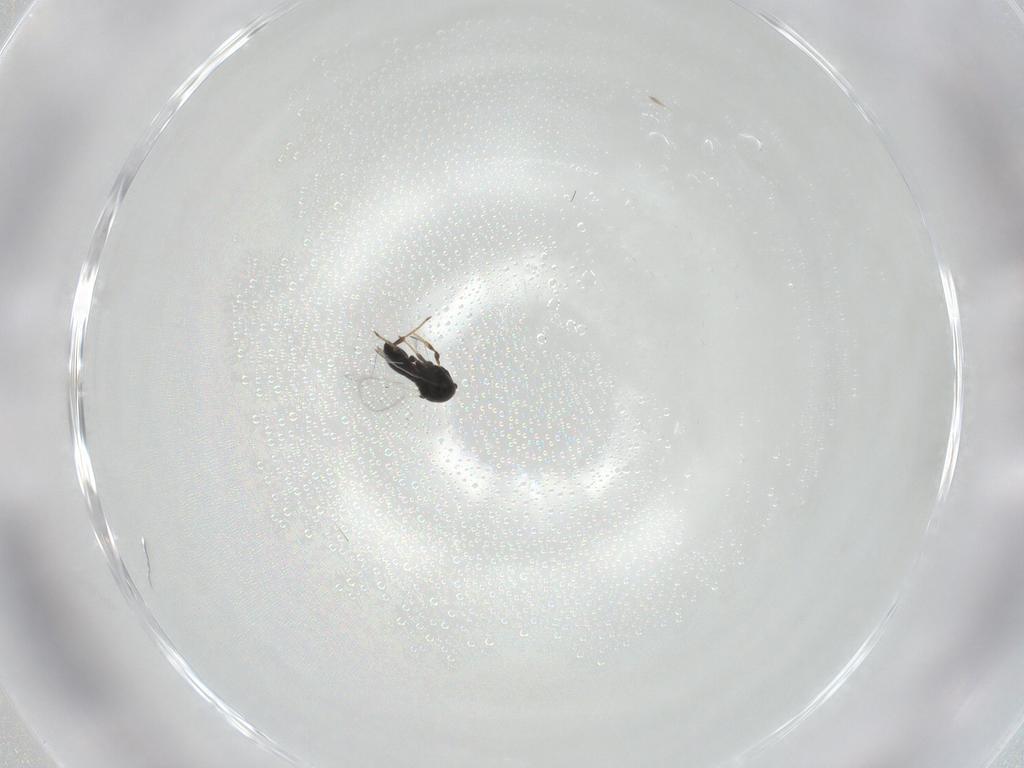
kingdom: Animalia
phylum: Arthropoda
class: Insecta
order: Hymenoptera
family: Platygastridae
